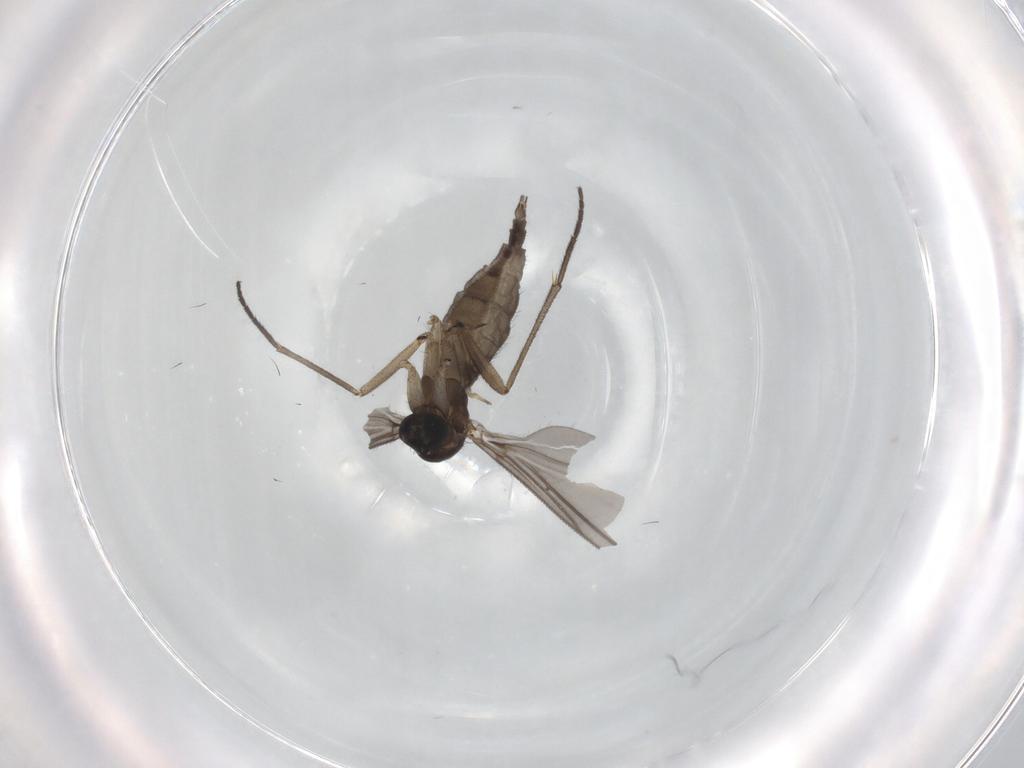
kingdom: Animalia
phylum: Arthropoda
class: Insecta
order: Diptera
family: Sciaridae
